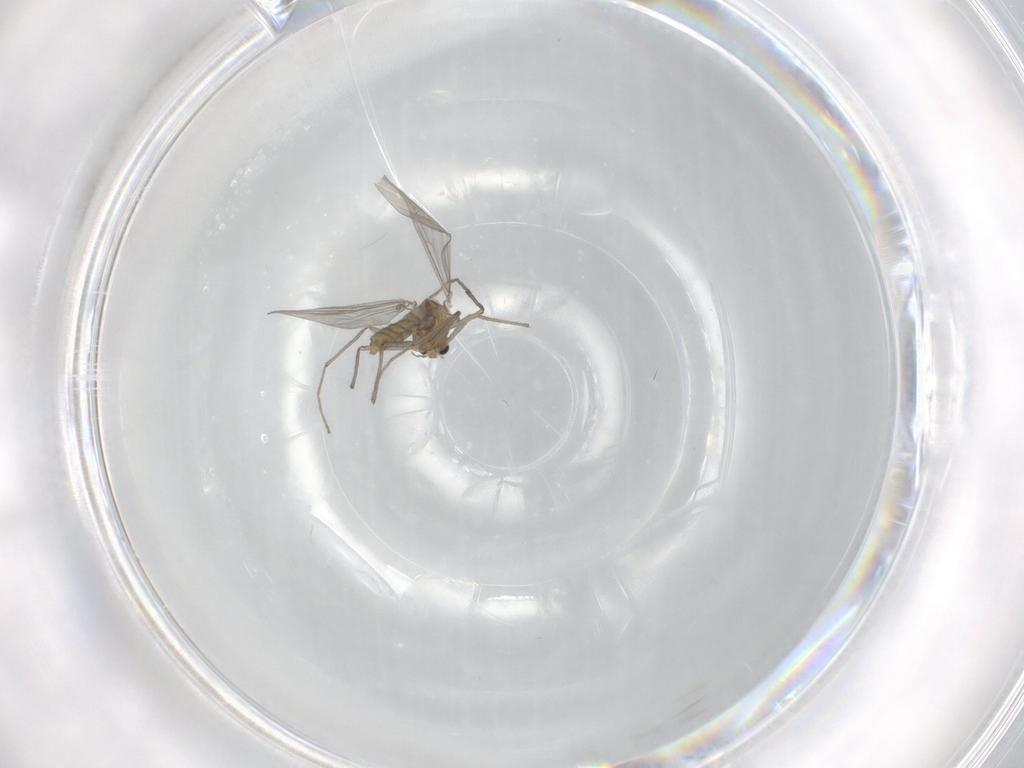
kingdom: Animalia
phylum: Arthropoda
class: Insecta
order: Diptera
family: Chironomidae
